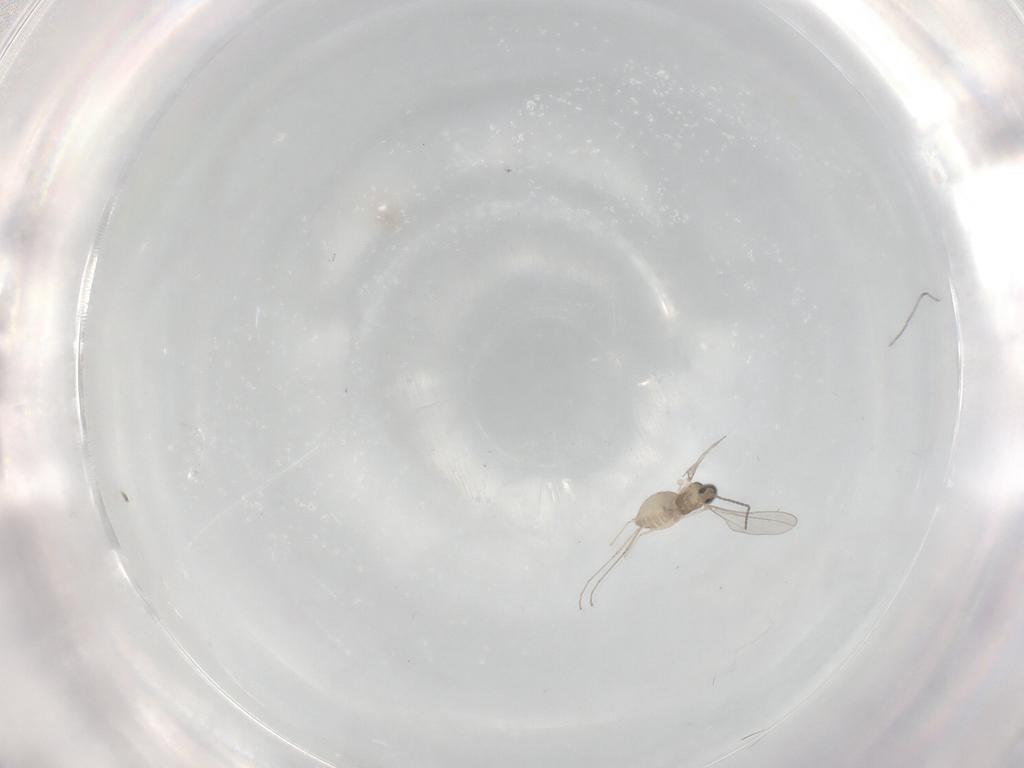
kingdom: Animalia
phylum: Arthropoda
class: Insecta
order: Diptera
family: Cecidomyiidae
